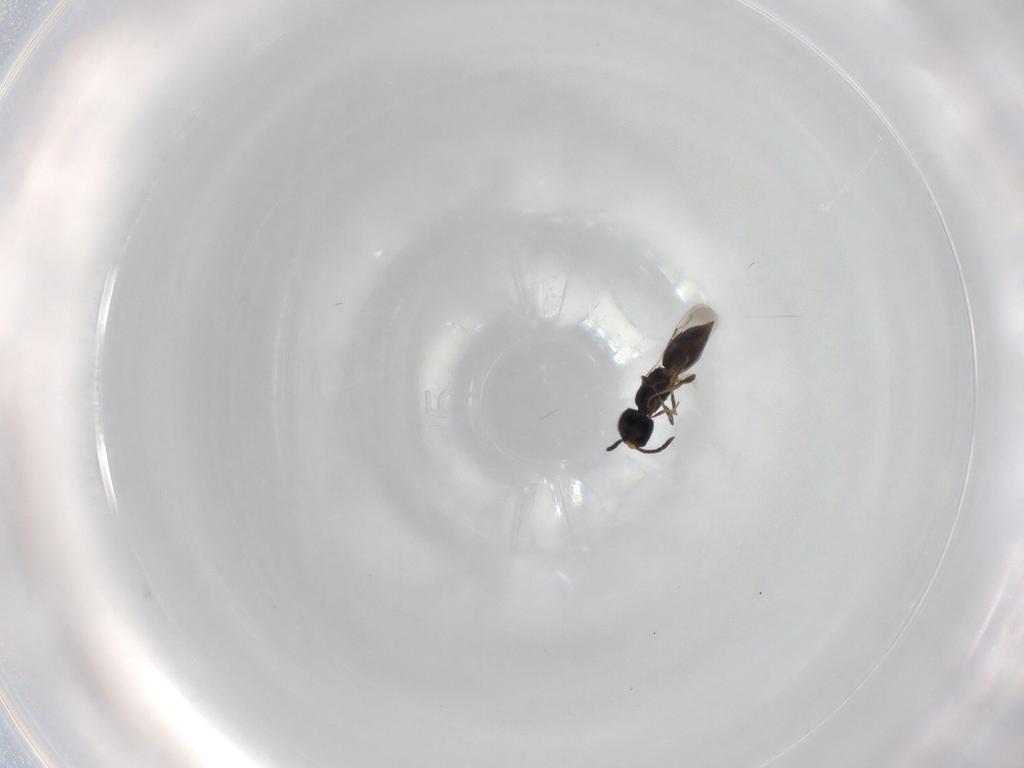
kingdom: Animalia
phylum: Arthropoda
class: Insecta
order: Hymenoptera
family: Ichneumonidae
